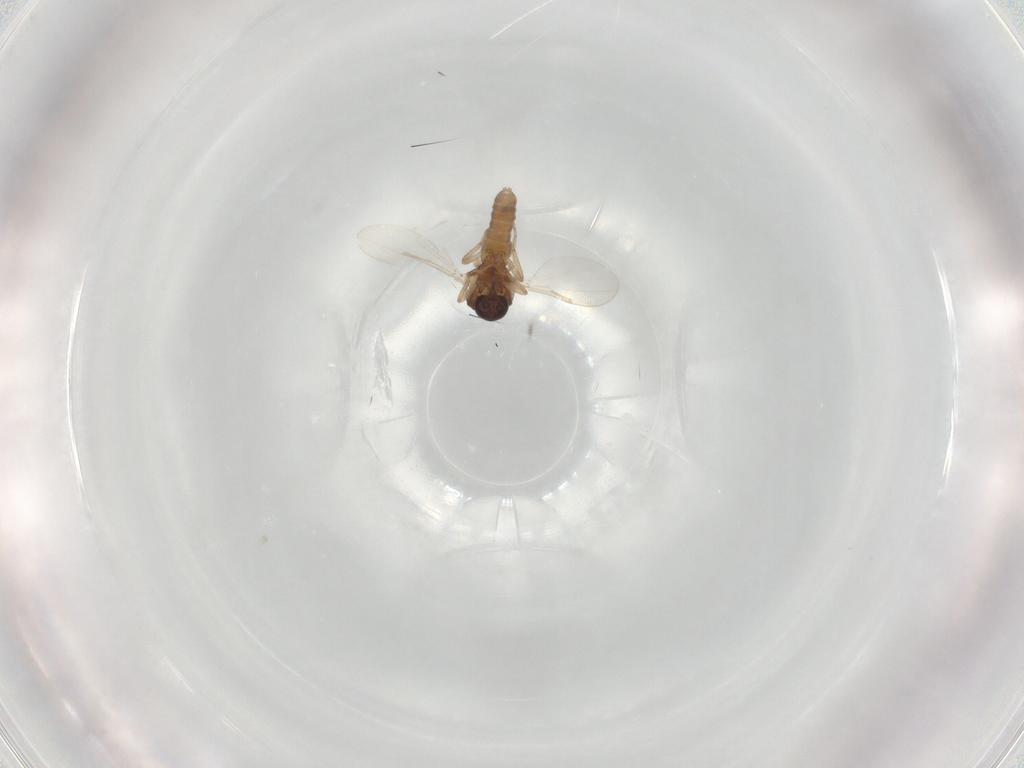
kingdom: Animalia
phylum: Arthropoda
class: Insecta
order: Diptera
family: Ceratopogonidae
